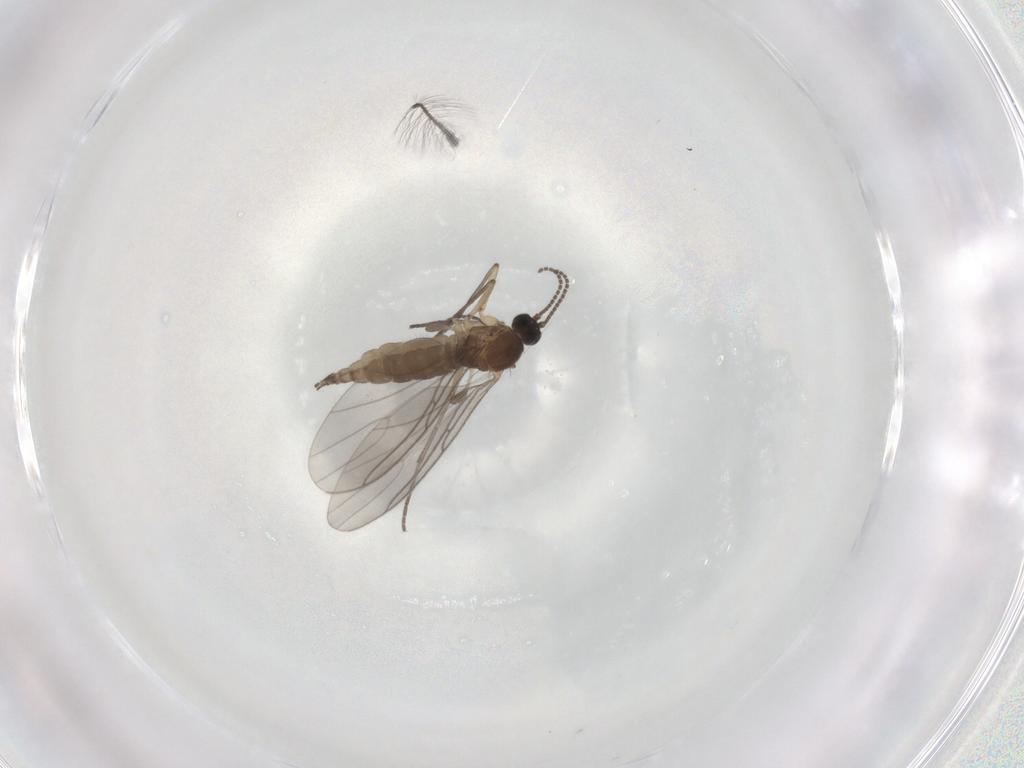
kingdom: Animalia
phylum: Arthropoda
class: Insecta
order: Diptera
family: Sciaridae
